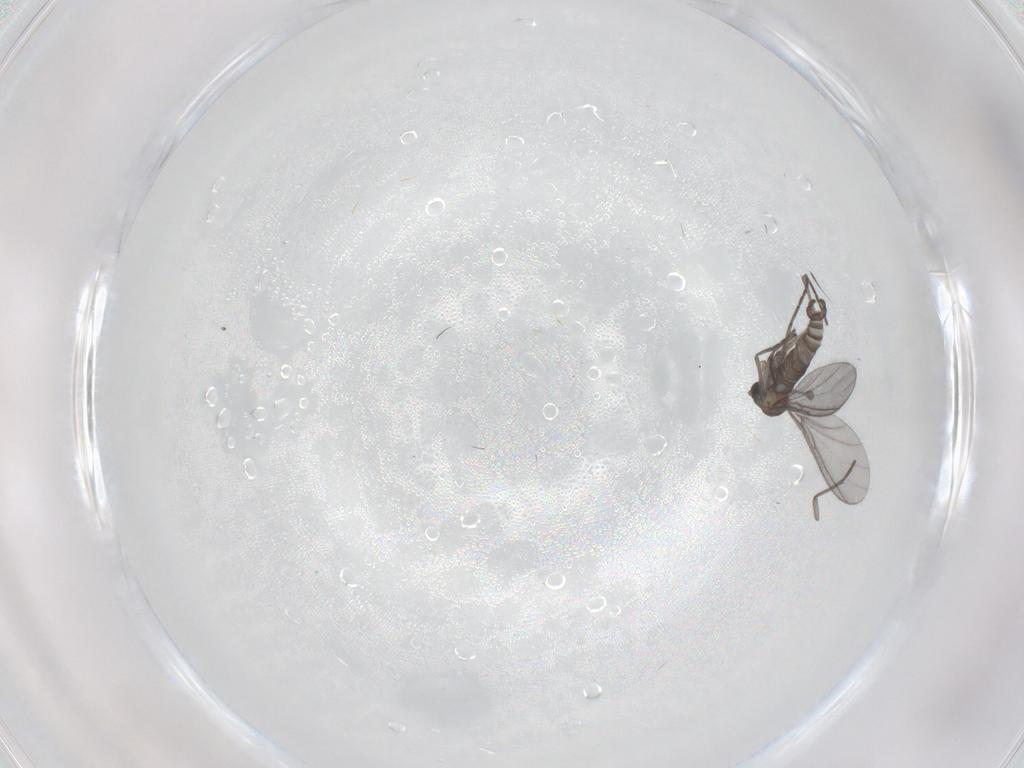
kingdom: Animalia
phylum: Arthropoda
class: Insecta
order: Diptera
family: Sciaridae
